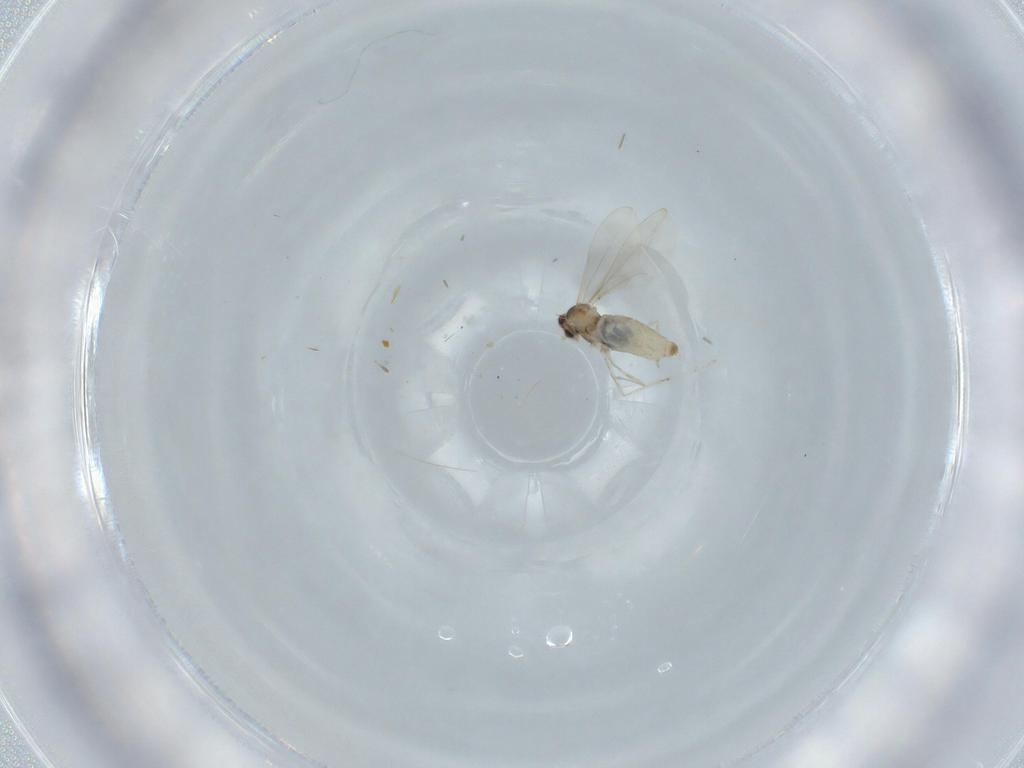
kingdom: Animalia
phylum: Arthropoda
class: Insecta
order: Diptera
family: Cecidomyiidae
